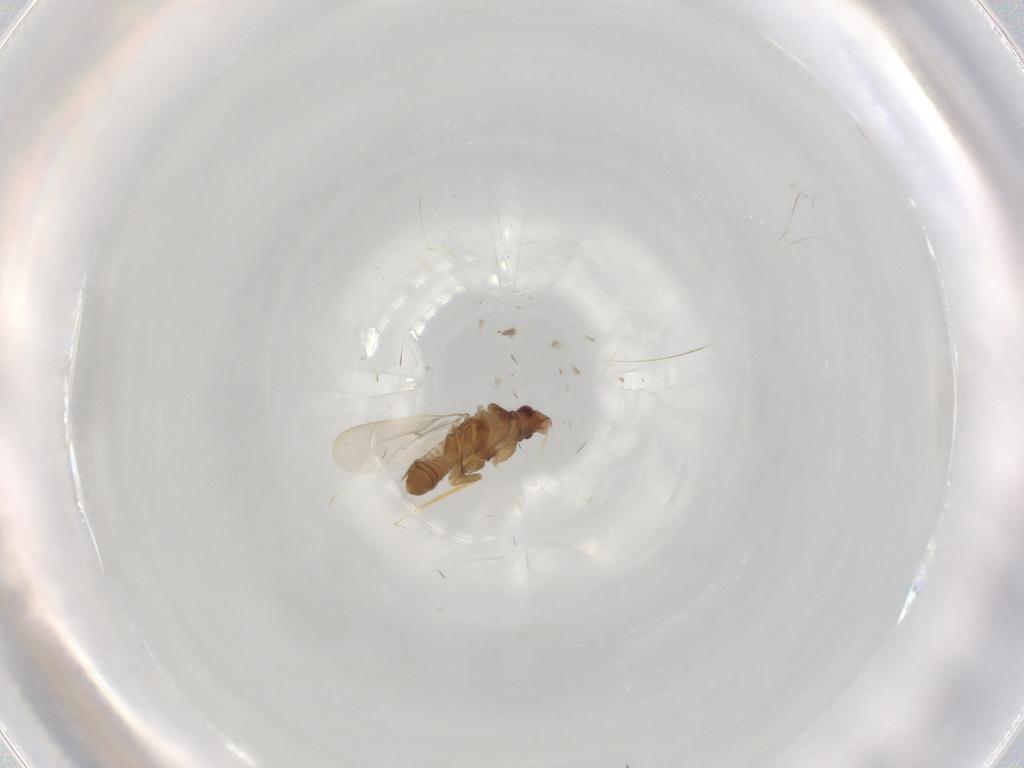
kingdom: Animalia
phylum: Arthropoda
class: Insecta
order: Hemiptera
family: Ceratocombidae
